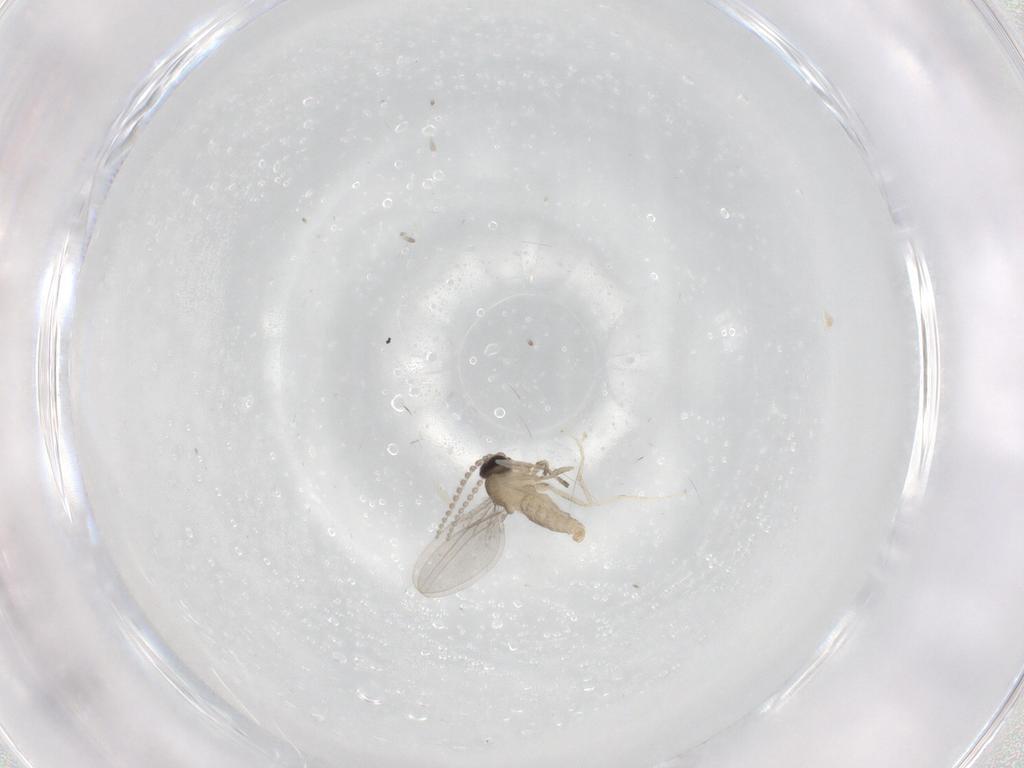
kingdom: Animalia
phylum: Arthropoda
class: Insecta
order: Diptera
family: Phoridae
